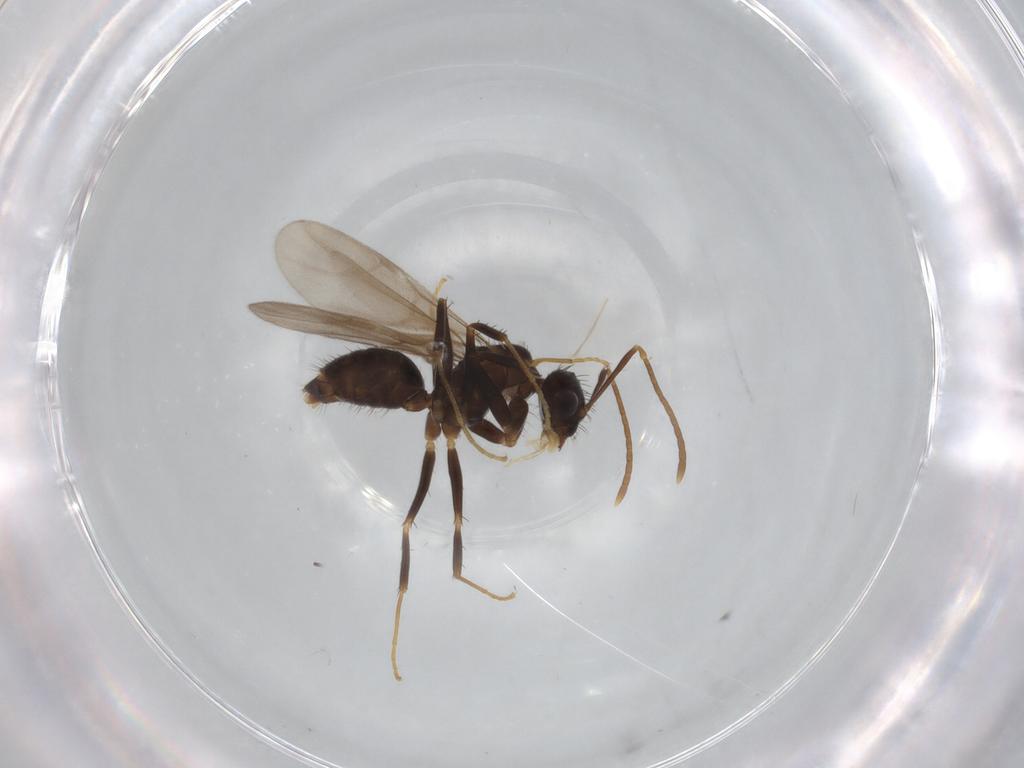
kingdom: Animalia
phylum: Arthropoda
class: Insecta
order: Hymenoptera
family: Formicidae
